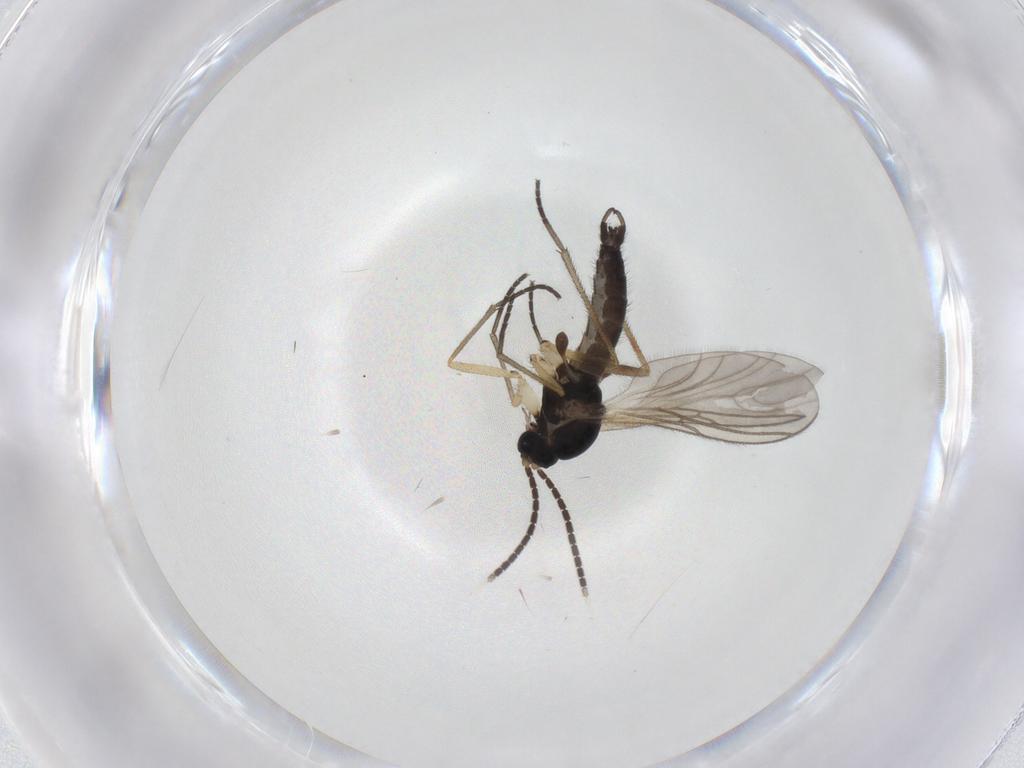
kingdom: Animalia
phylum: Arthropoda
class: Insecta
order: Diptera
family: Sciaridae
